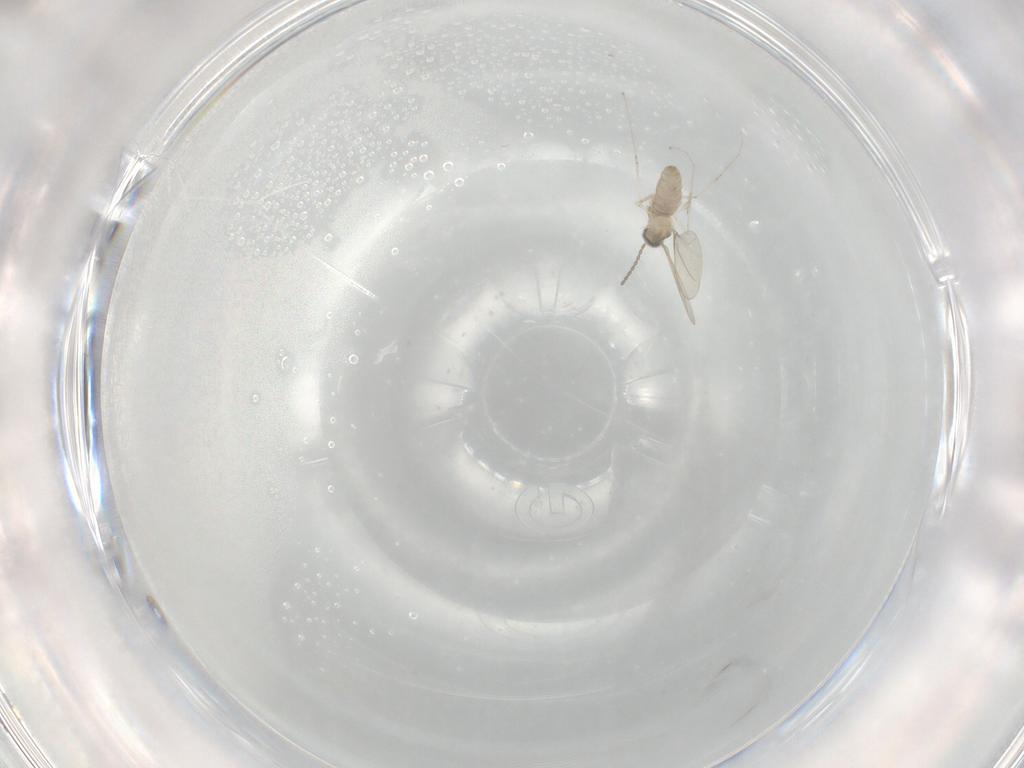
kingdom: Animalia
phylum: Arthropoda
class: Insecta
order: Diptera
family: Cecidomyiidae
